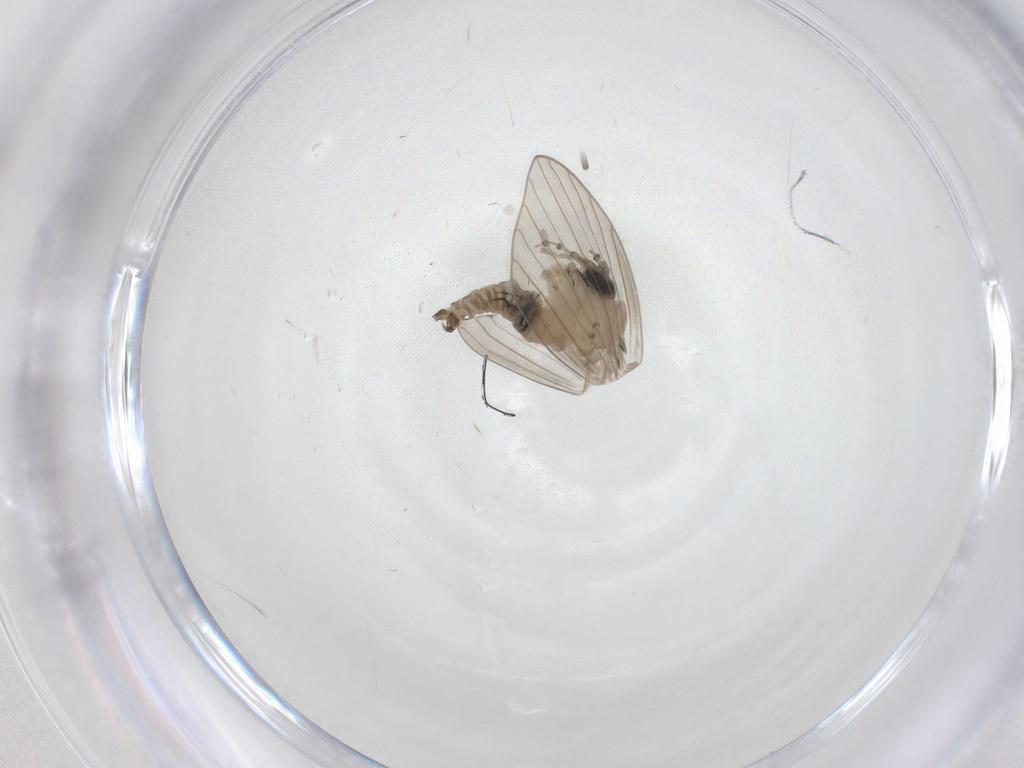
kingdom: Animalia
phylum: Arthropoda
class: Insecta
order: Diptera
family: Psychodidae
